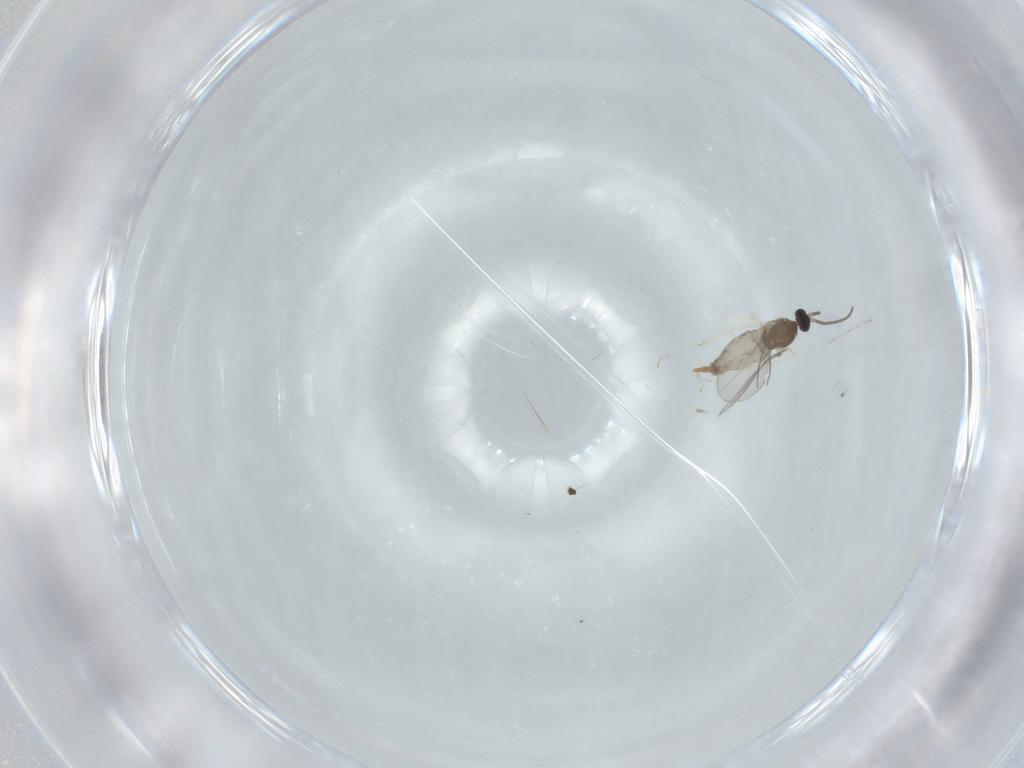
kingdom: Animalia
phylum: Arthropoda
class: Insecta
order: Diptera
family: Cecidomyiidae
